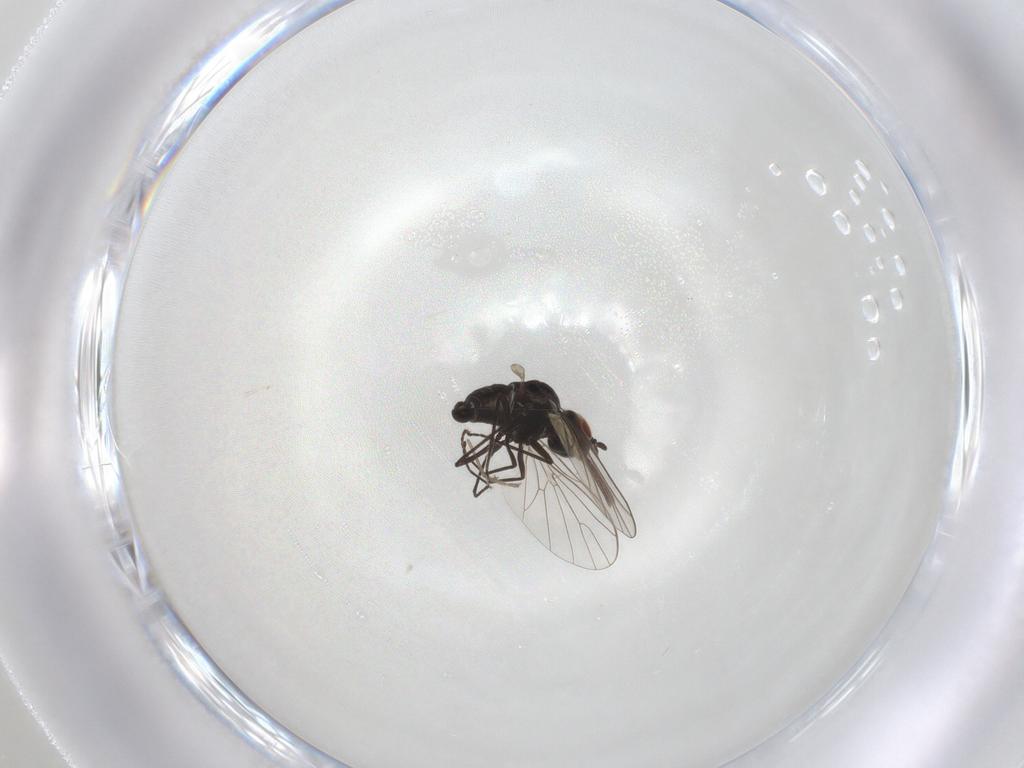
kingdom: Animalia
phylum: Arthropoda
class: Insecta
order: Diptera
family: Bombyliidae
